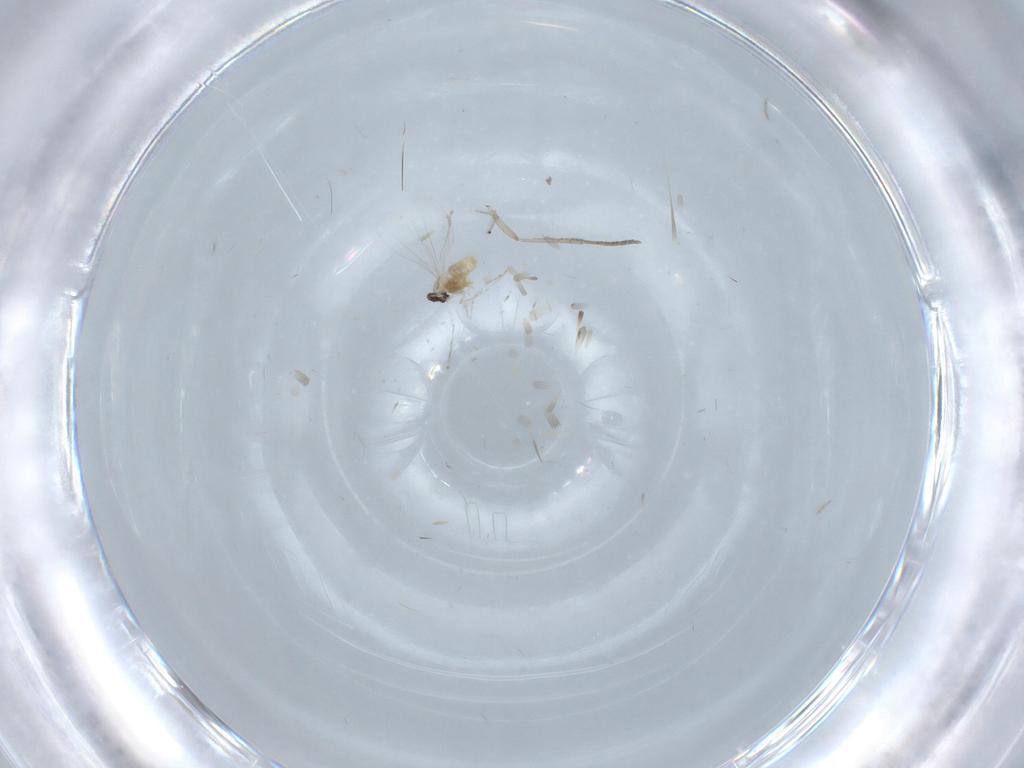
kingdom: Animalia
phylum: Arthropoda
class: Insecta
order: Diptera
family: Cecidomyiidae
